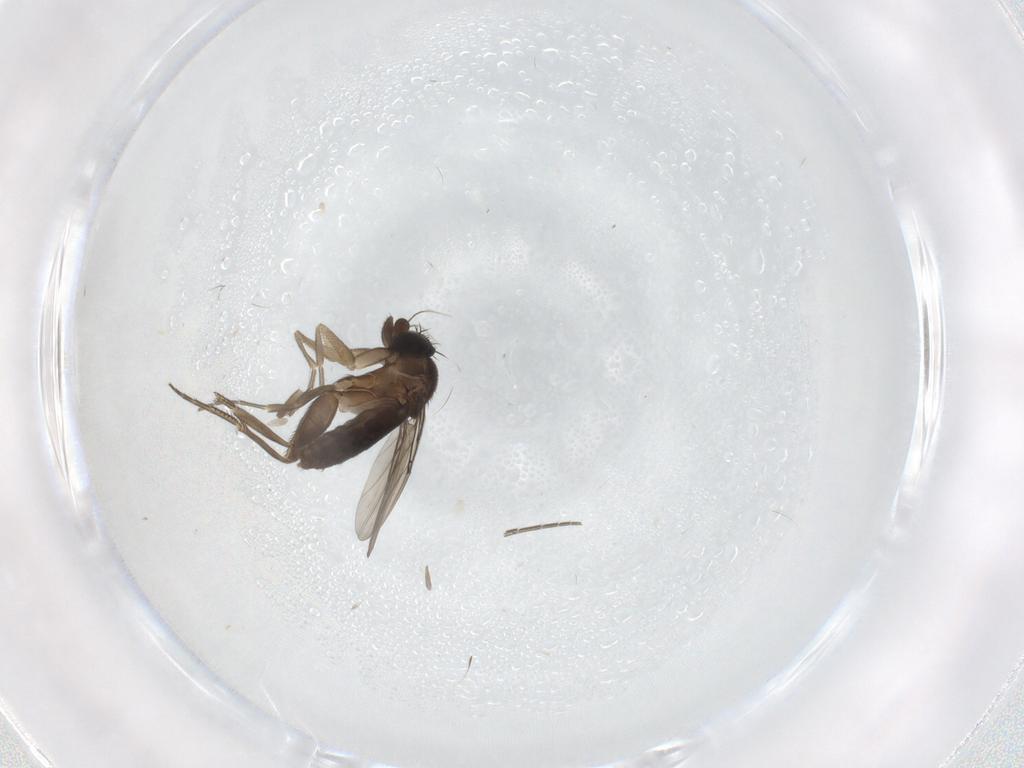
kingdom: Animalia
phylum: Arthropoda
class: Insecta
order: Diptera
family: Phoridae
